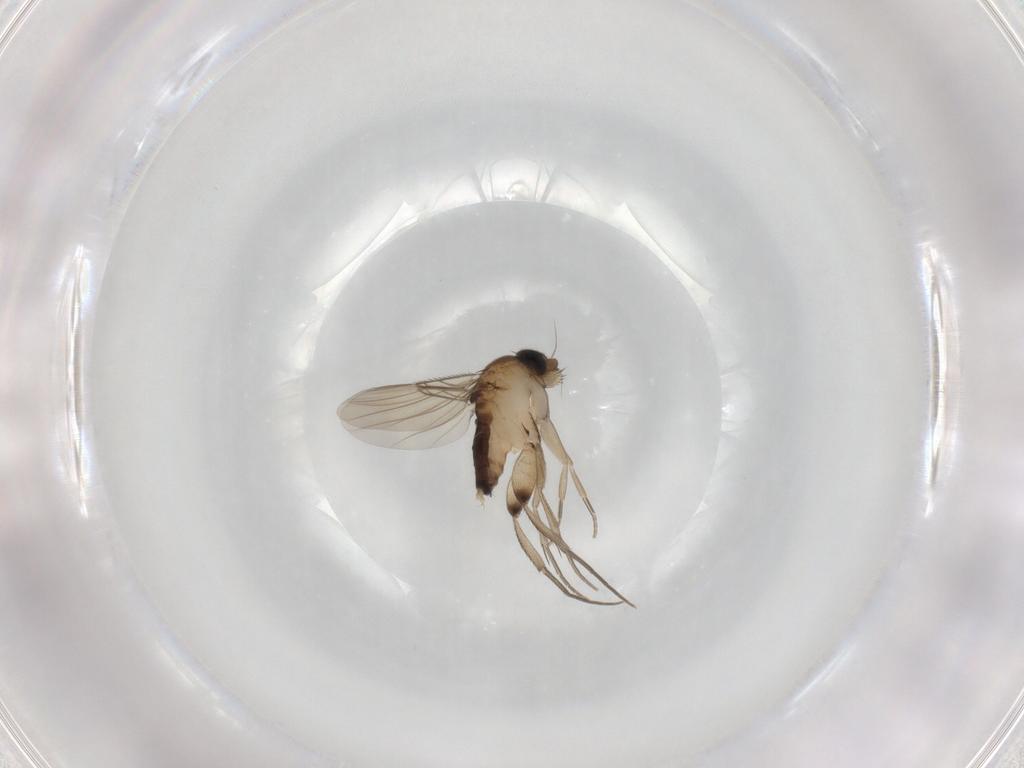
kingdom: Animalia
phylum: Arthropoda
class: Insecta
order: Diptera
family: Phoridae
